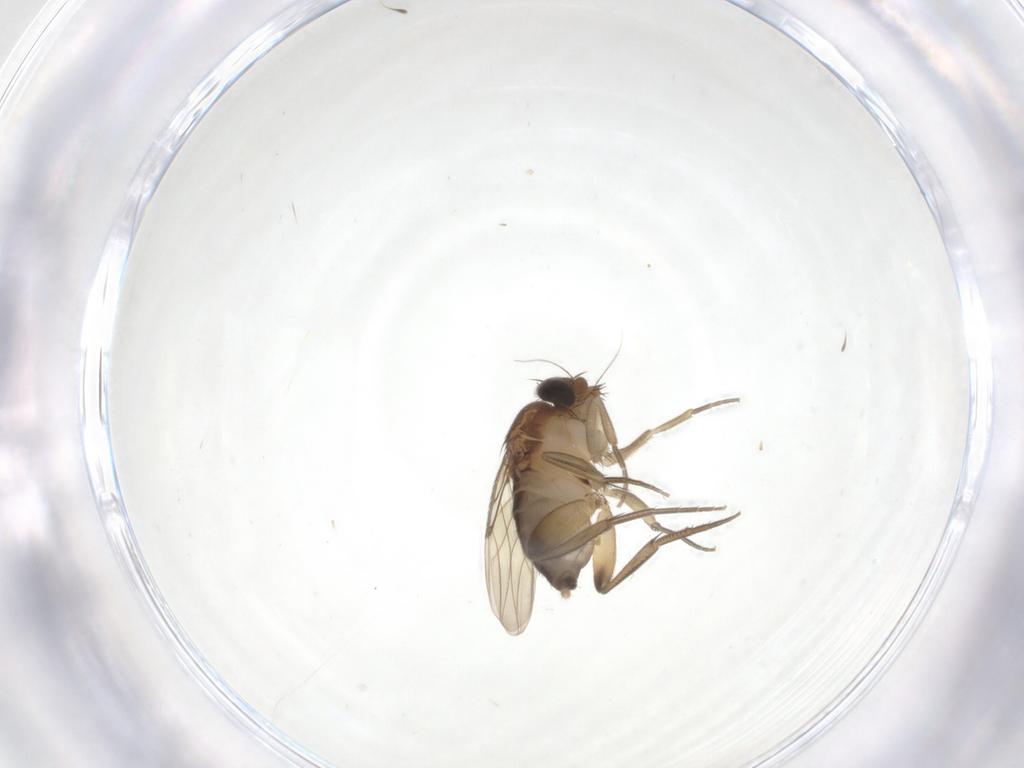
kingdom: Animalia
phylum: Arthropoda
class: Insecta
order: Diptera
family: Phoridae
